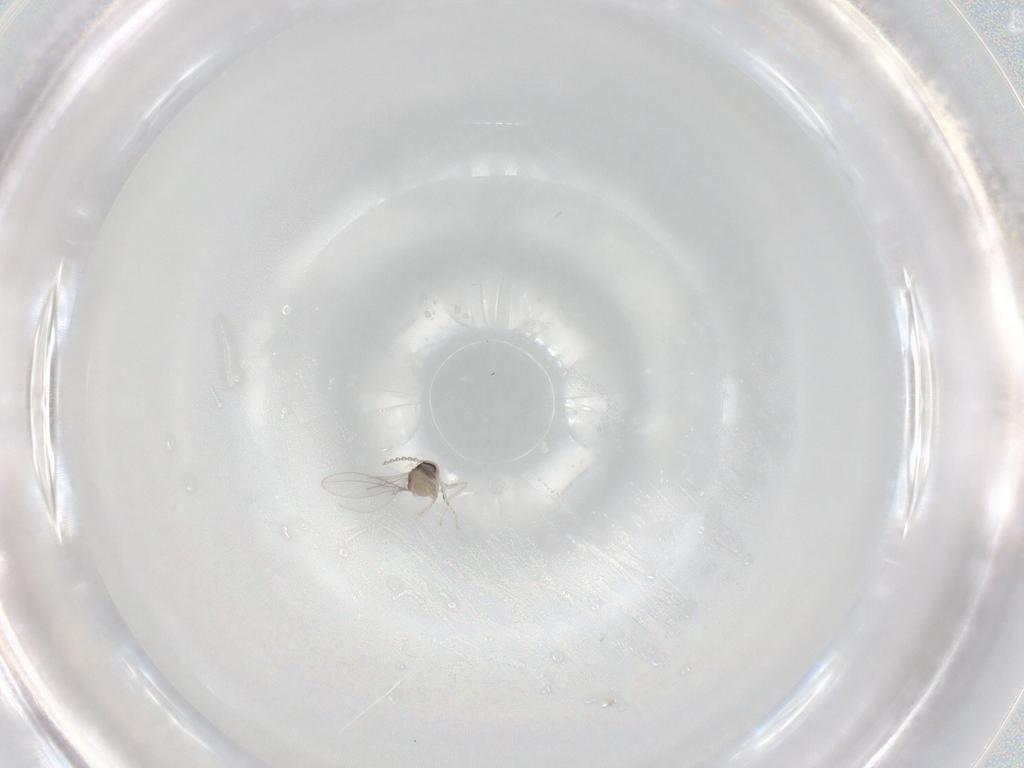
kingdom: Animalia
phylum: Arthropoda
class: Insecta
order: Diptera
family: Cecidomyiidae
